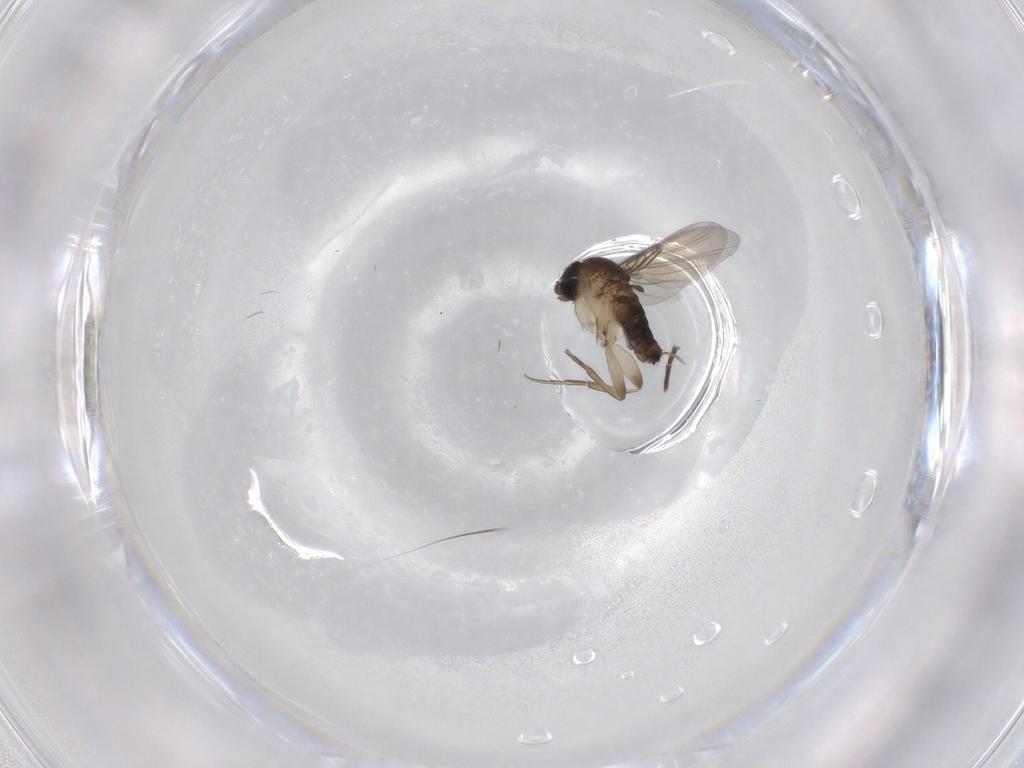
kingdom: Animalia
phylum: Arthropoda
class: Insecta
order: Diptera
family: Phoridae
